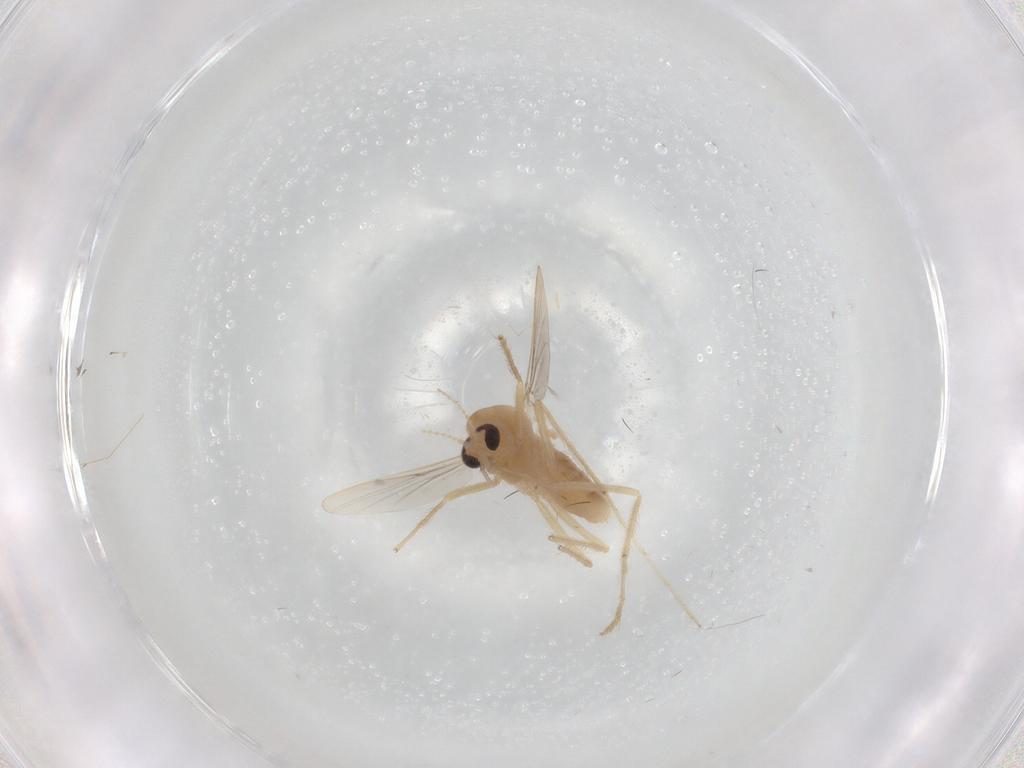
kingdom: Animalia
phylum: Arthropoda
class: Insecta
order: Diptera
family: Chironomidae
